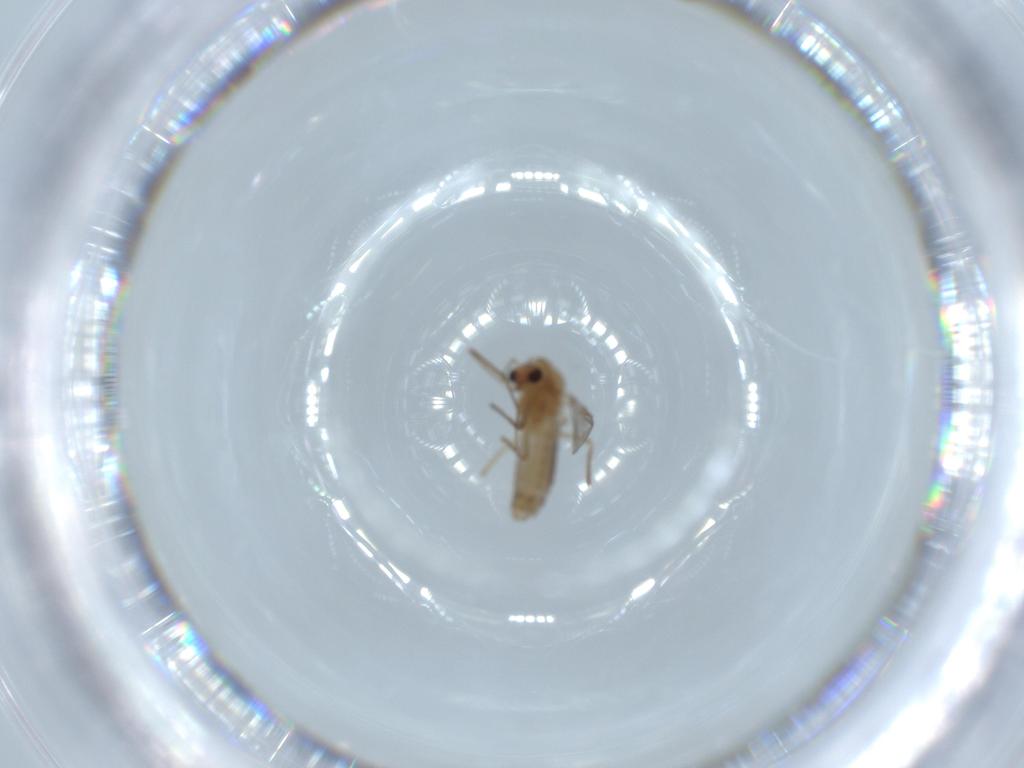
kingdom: Animalia
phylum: Arthropoda
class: Insecta
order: Diptera
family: Chironomidae
